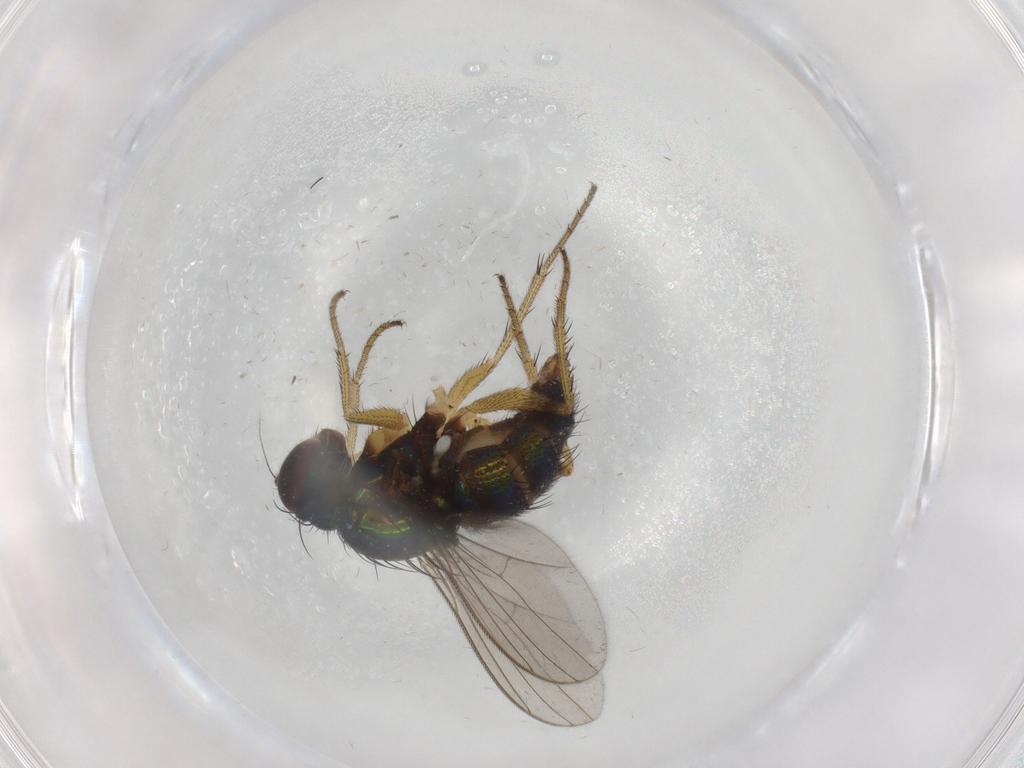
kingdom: Animalia
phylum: Arthropoda
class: Insecta
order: Diptera
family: Dolichopodidae
